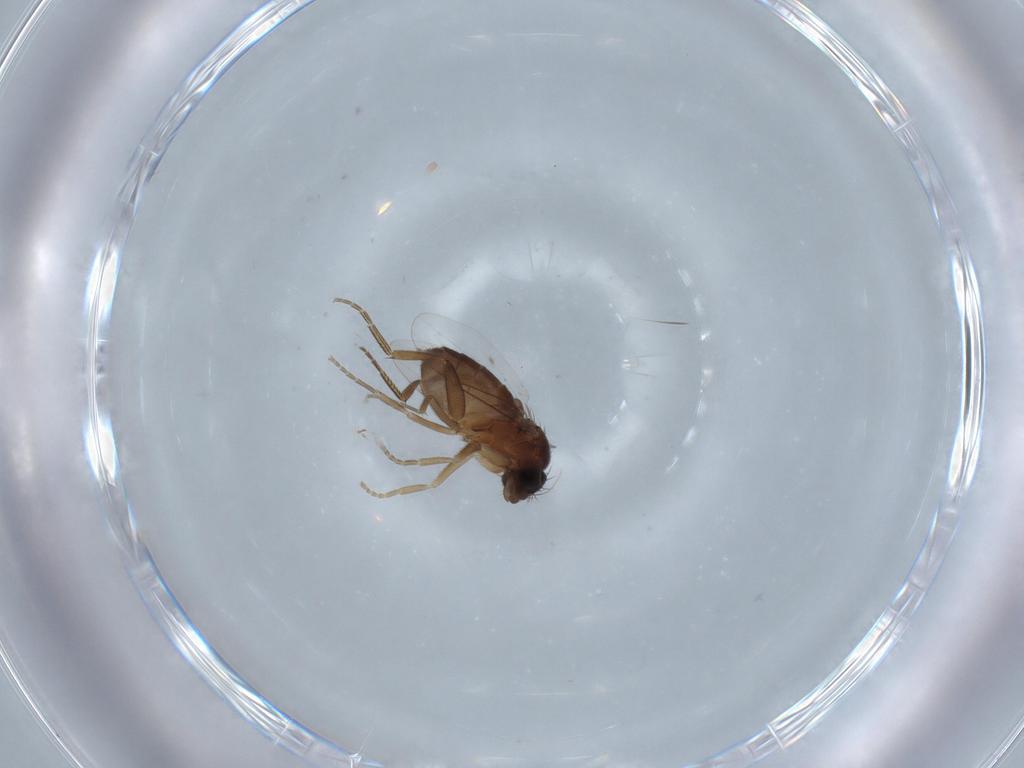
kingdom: Animalia
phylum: Arthropoda
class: Insecta
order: Diptera
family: Phoridae
